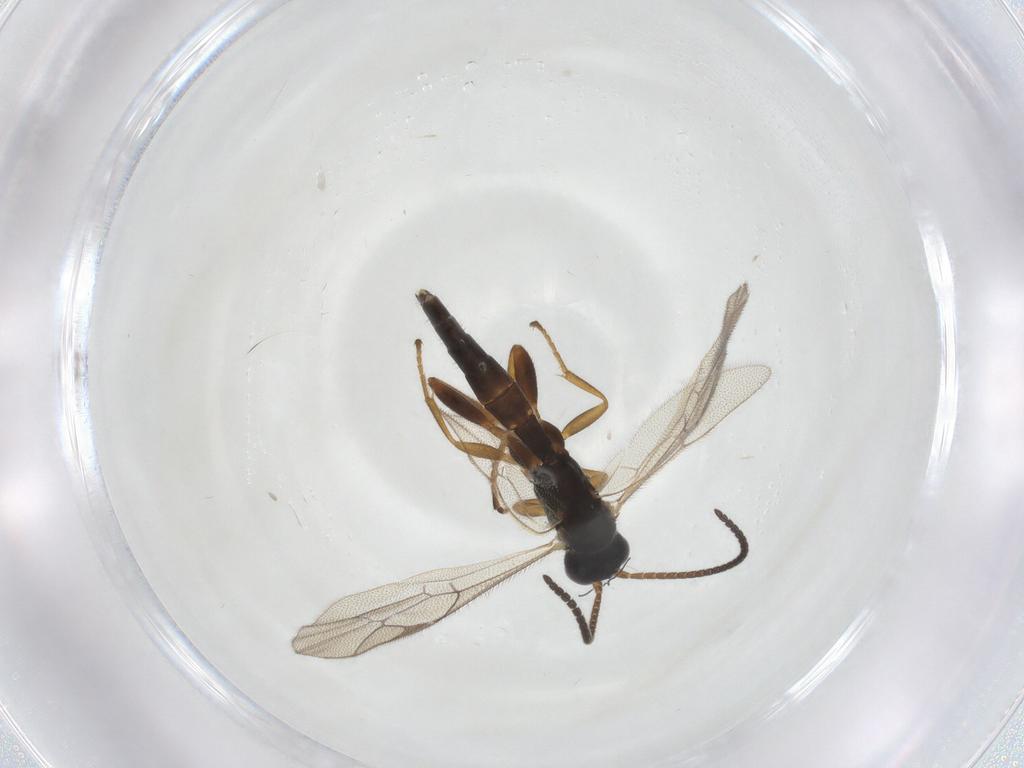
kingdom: Animalia
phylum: Arthropoda
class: Insecta
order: Hymenoptera
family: Ichneumonidae
